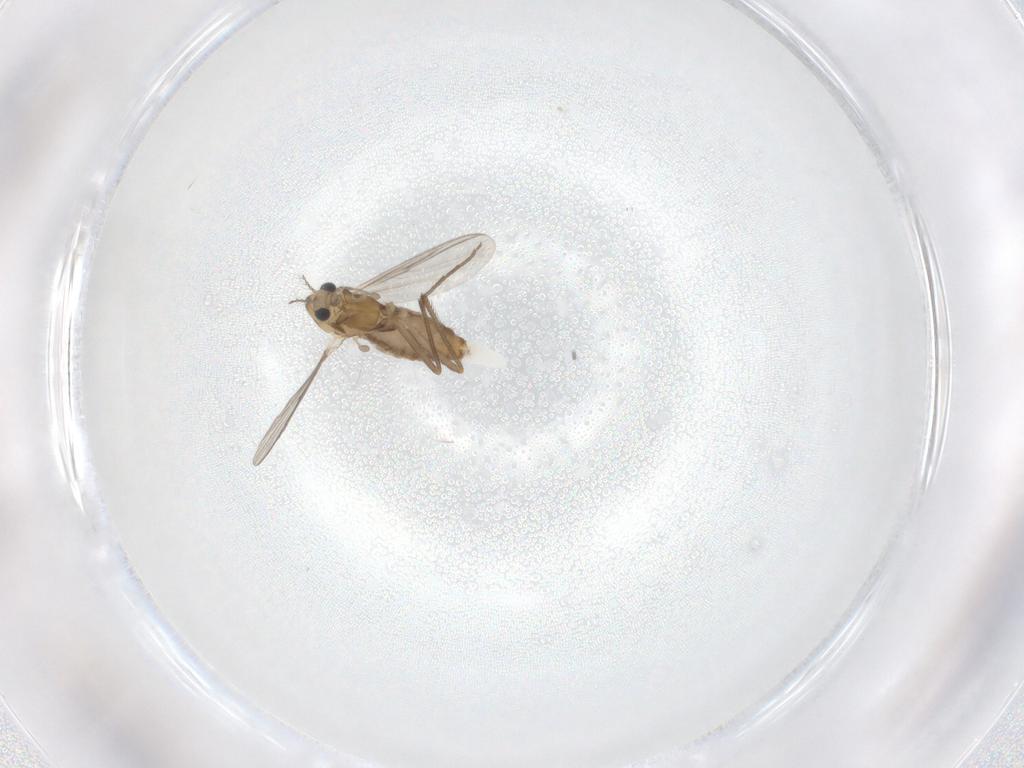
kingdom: Animalia
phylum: Arthropoda
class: Insecta
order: Diptera
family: Chironomidae
